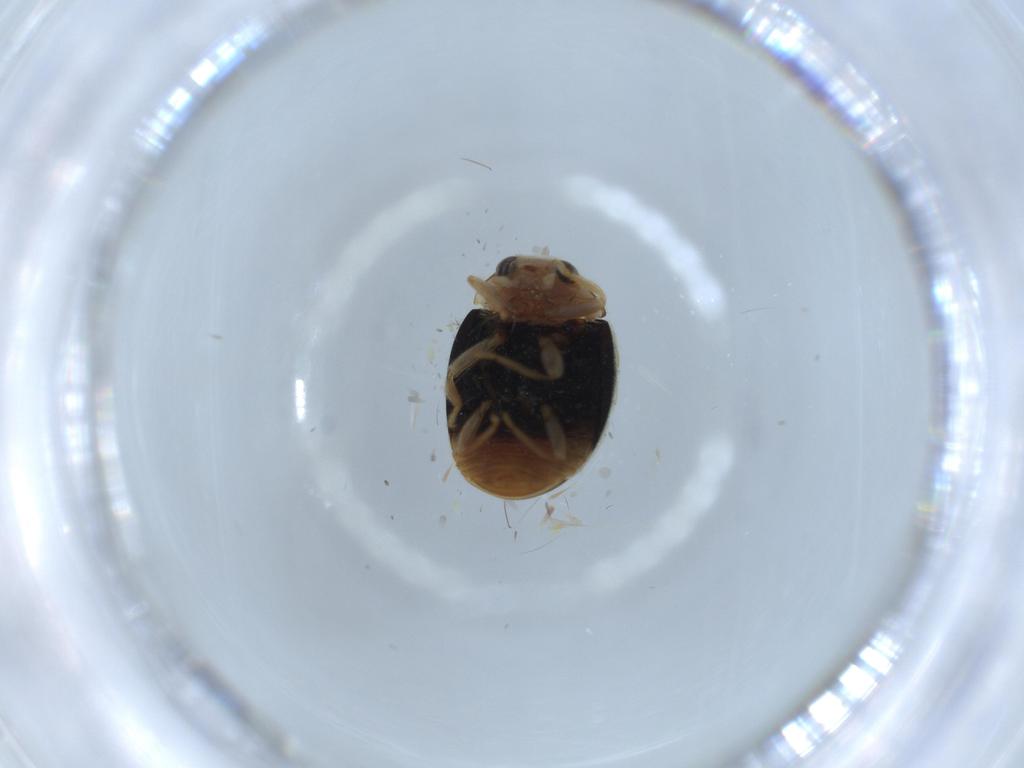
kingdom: Animalia
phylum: Arthropoda
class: Insecta
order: Coleoptera
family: Coccinellidae
